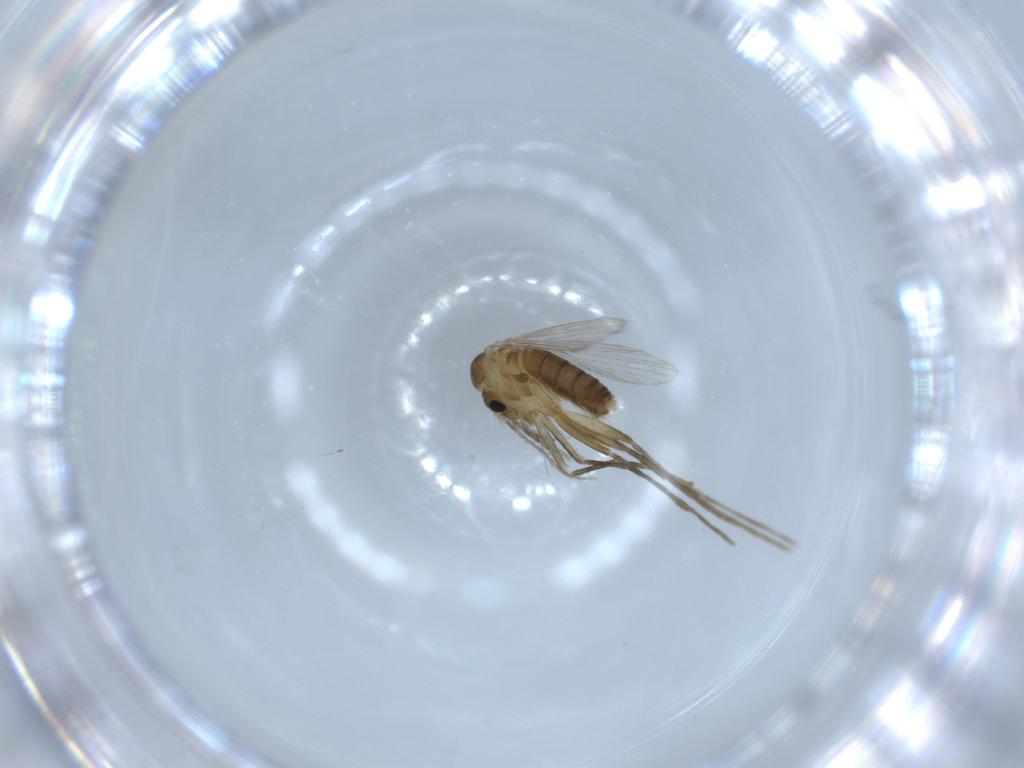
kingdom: Animalia
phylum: Arthropoda
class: Insecta
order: Diptera
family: Psychodidae
